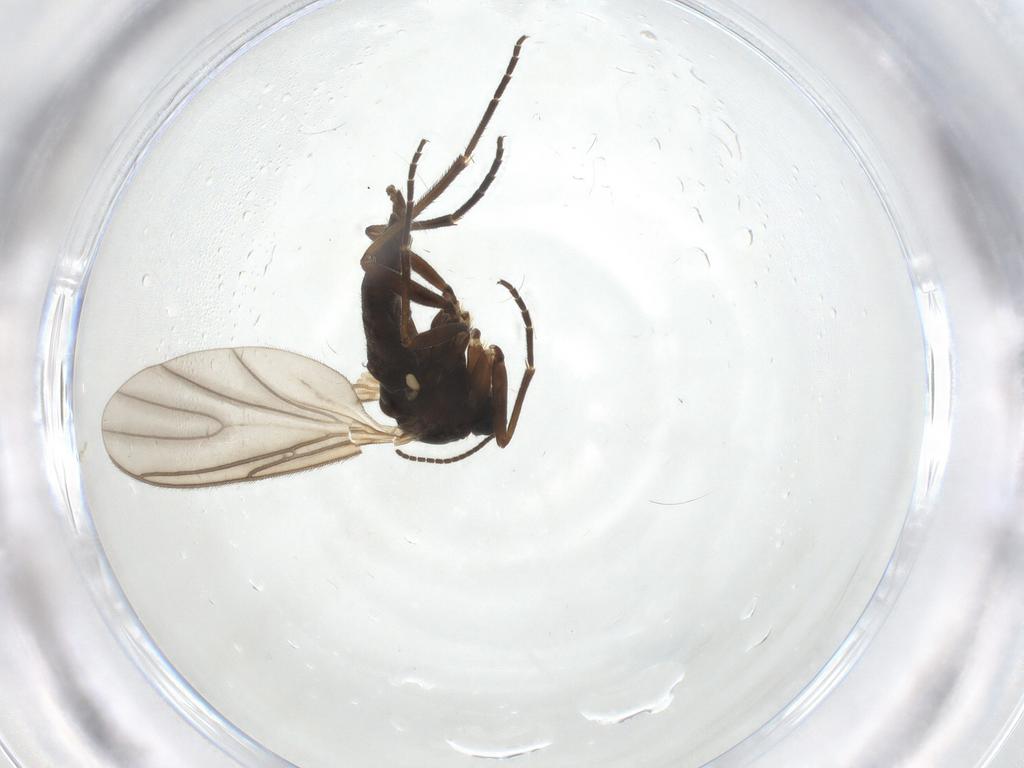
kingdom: Animalia
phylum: Arthropoda
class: Insecta
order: Diptera
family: Sciaridae
